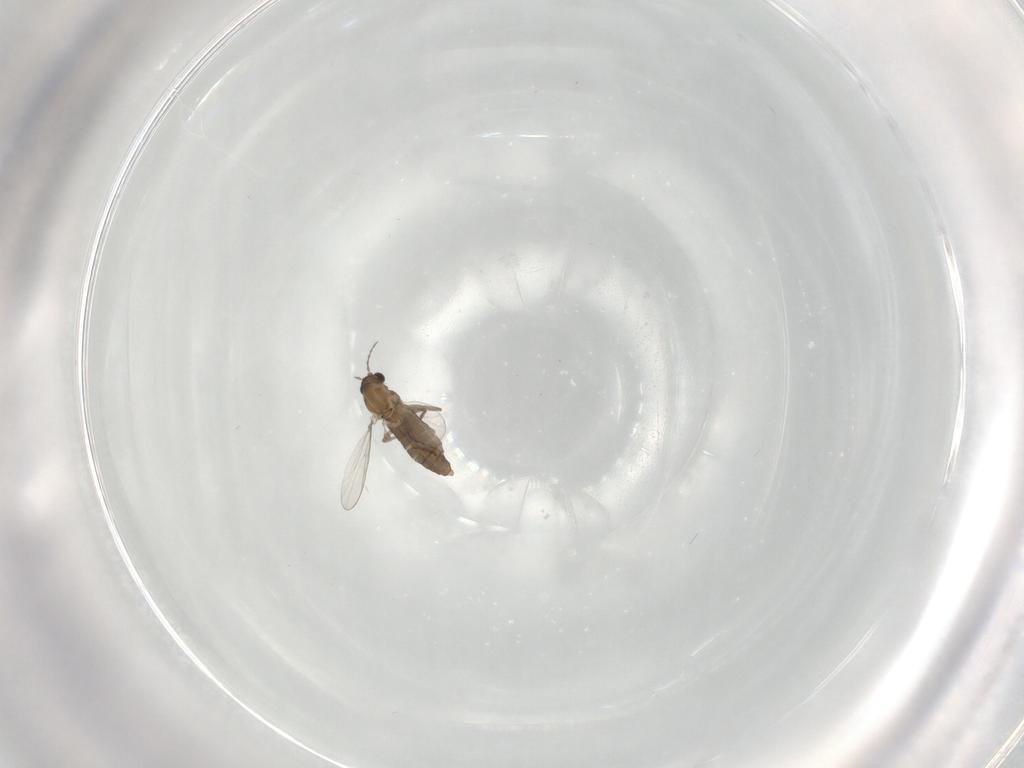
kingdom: Animalia
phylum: Arthropoda
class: Insecta
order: Diptera
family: Chironomidae
